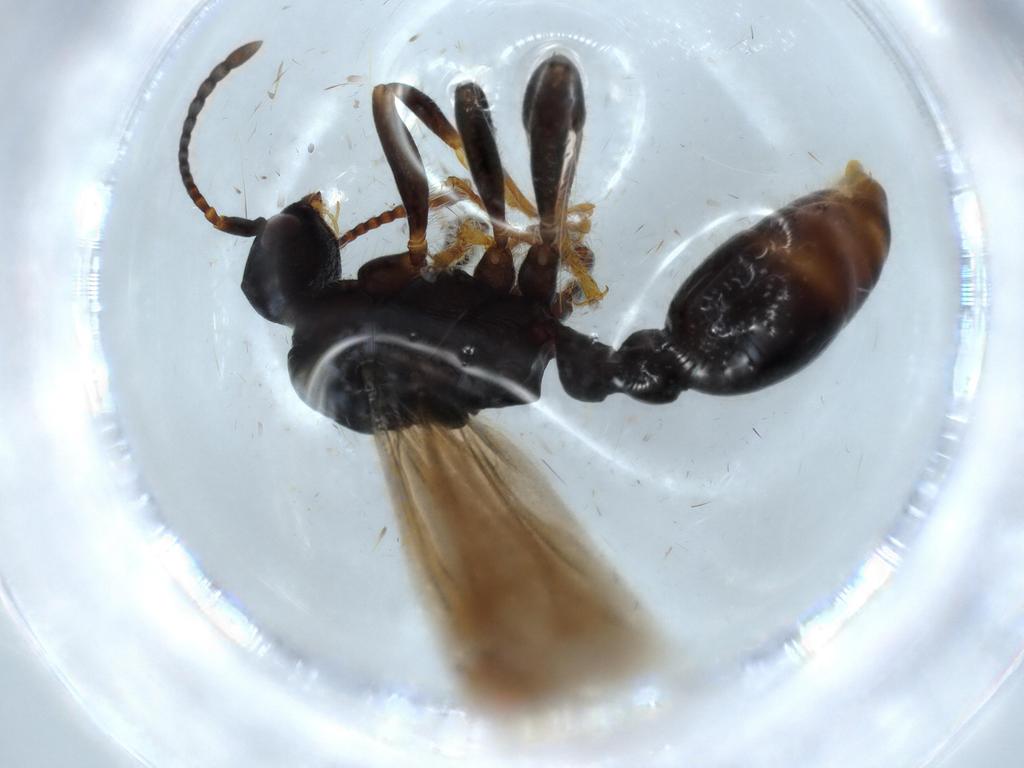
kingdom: Animalia
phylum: Arthropoda
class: Insecta
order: Hymenoptera
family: Formicidae
